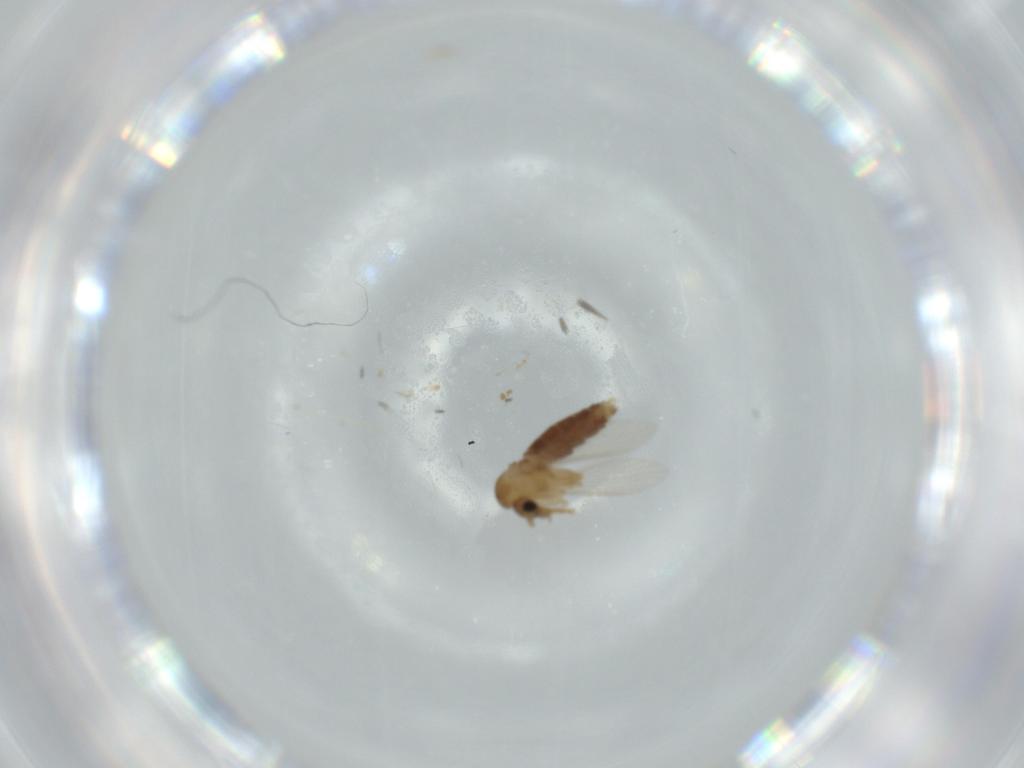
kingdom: Animalia
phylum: Arthropoda
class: Insecta
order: Diptera
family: Psychodidae
